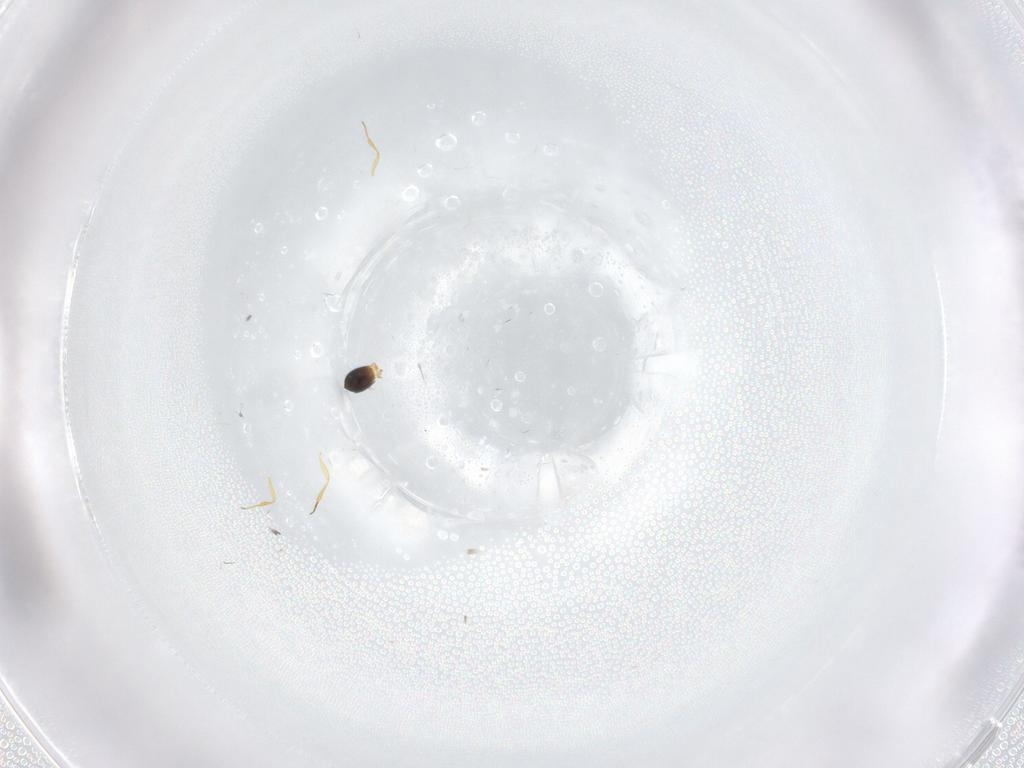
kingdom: Animalia
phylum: Arthropoda
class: Insecta
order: Hymenoptera
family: Scelionidae
